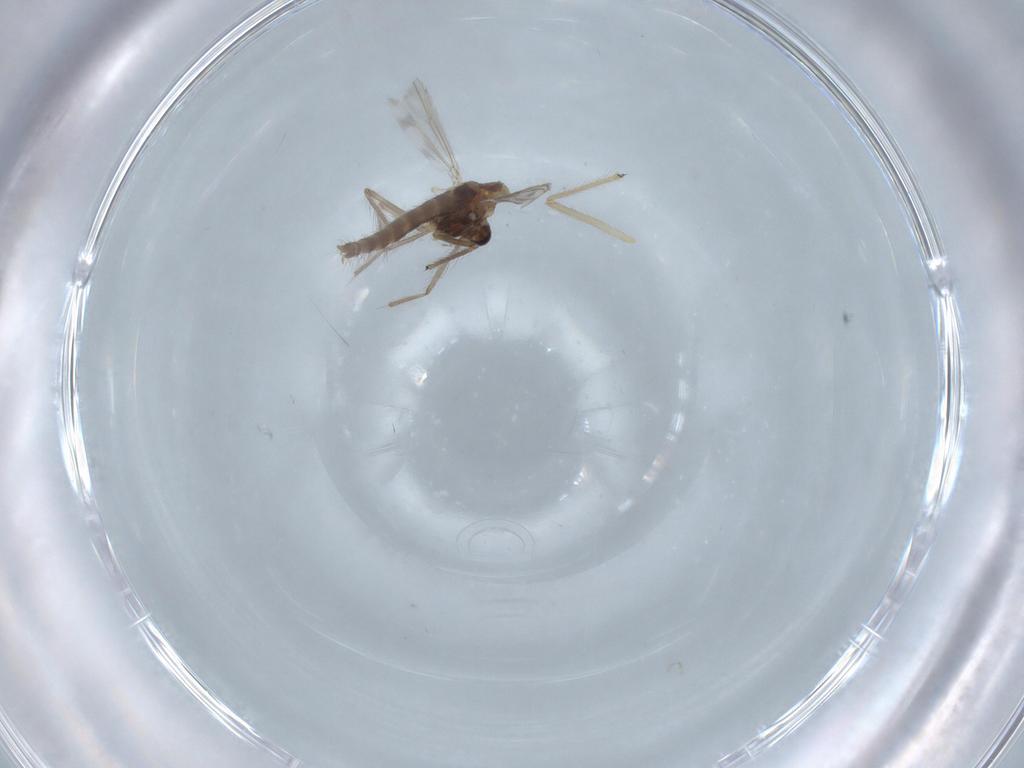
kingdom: Animalia
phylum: Arthropoda
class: Insecta
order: Diptera
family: Chironomidae
